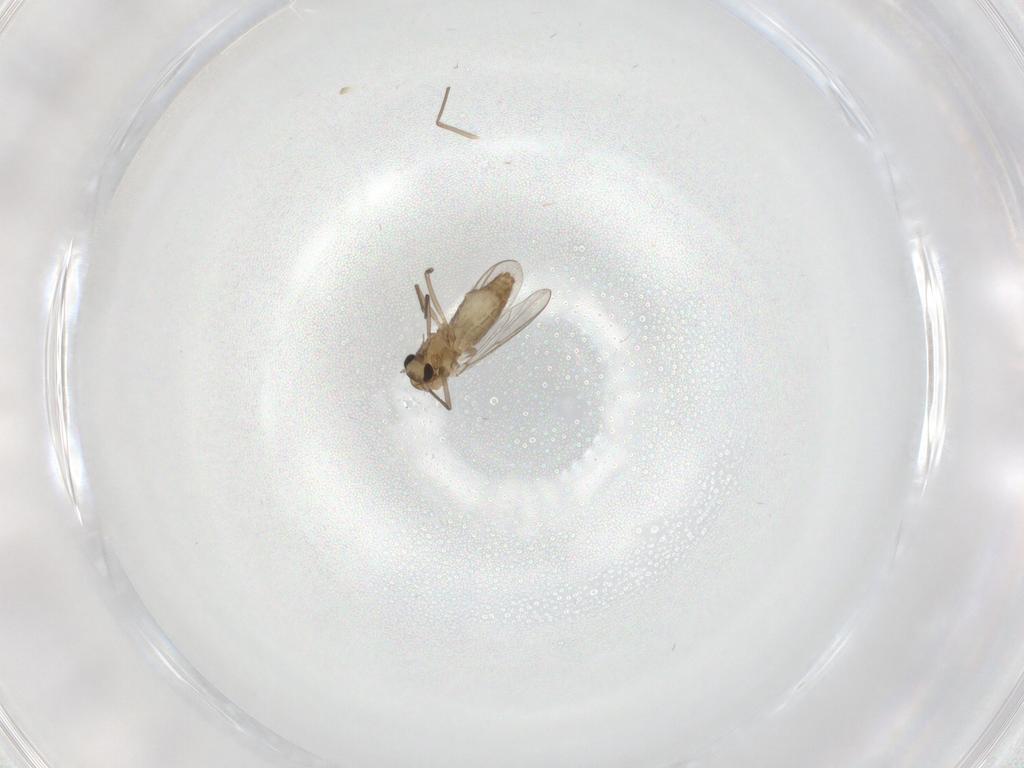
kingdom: Animalia
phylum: Arthropoda
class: Insecta
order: Diptera
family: Chironomidae
